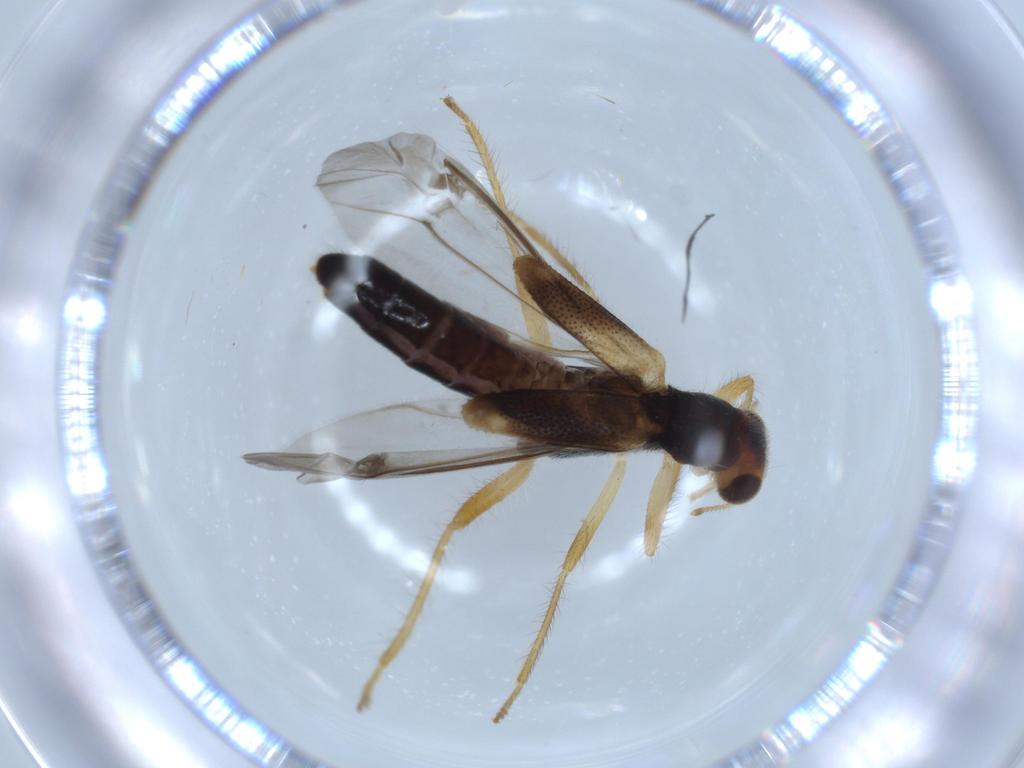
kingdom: Animalia
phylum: Arthropoda
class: Insecta
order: Coleoptera
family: Cleridae
